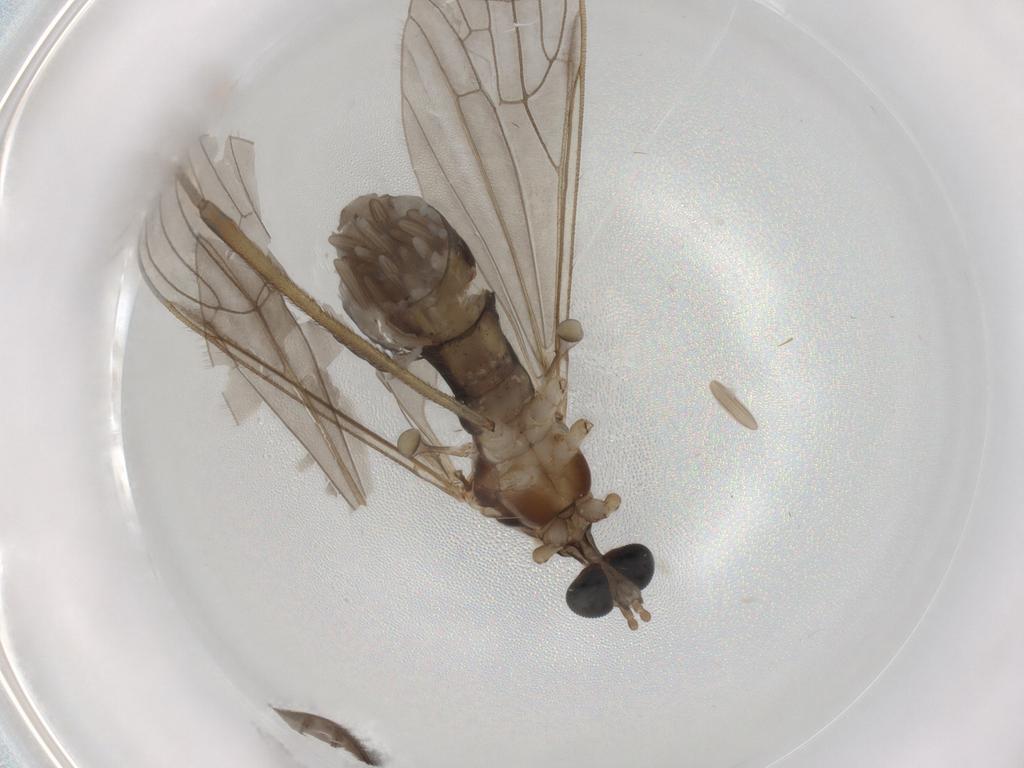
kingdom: Animalia
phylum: Arthropoda
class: Insecta
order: Diptera
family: Limoniidae
